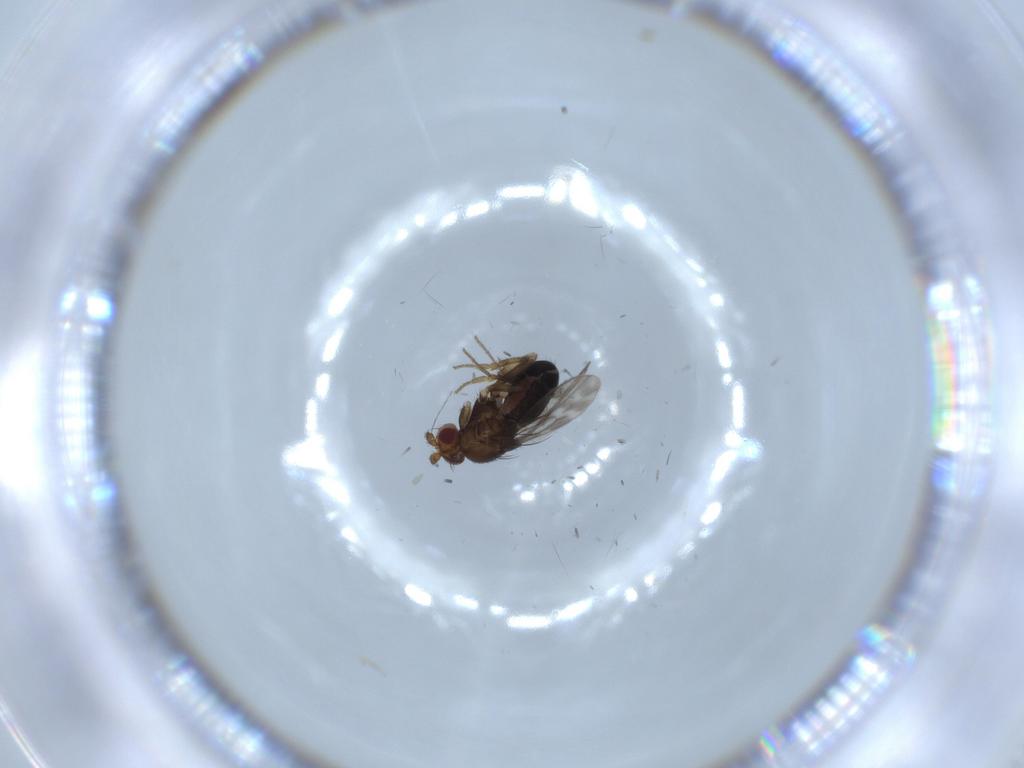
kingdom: Animalia
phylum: Arthropoda
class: Insecta
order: Diptera
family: Sphaeroceridae
